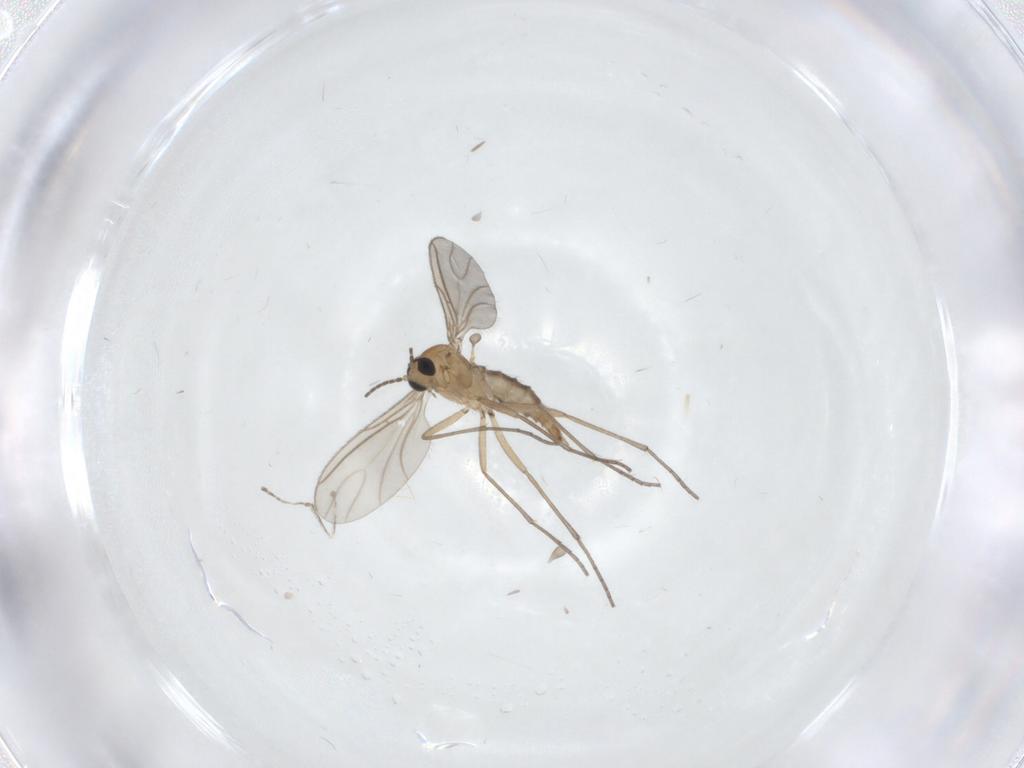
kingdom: Animalia
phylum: Arthropoda
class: Insecta
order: Diptera
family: Sciaridae
